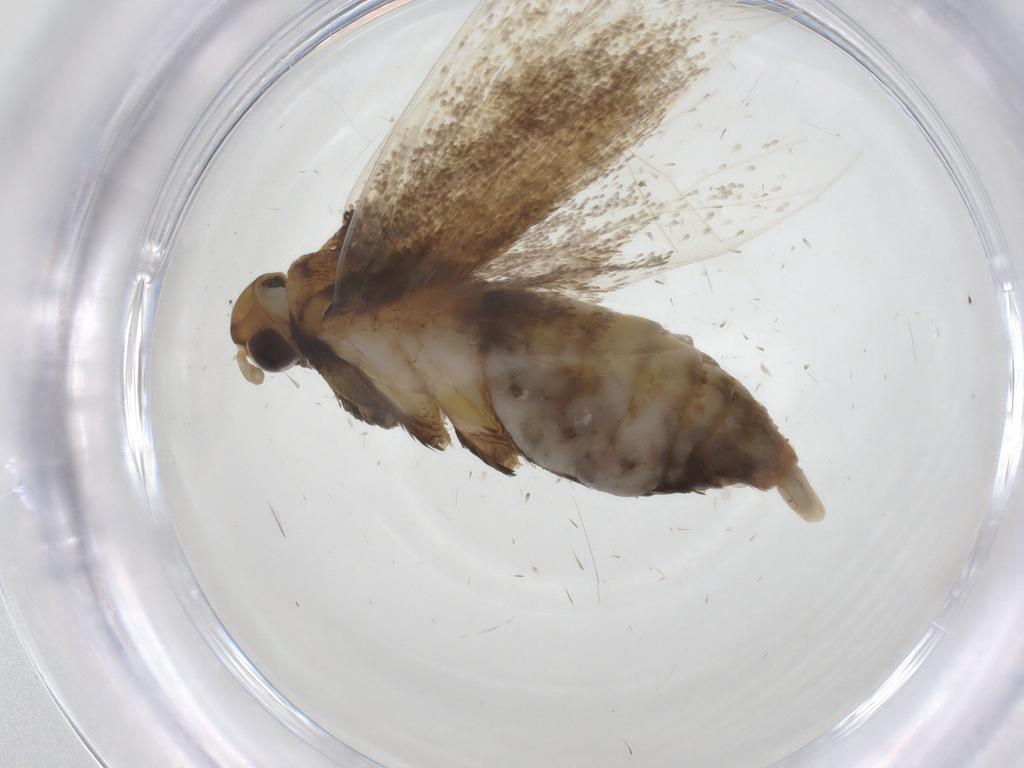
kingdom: Animalia
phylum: Arthropoda
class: Insecta
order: Lepidoptera
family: Lecithoceridae
